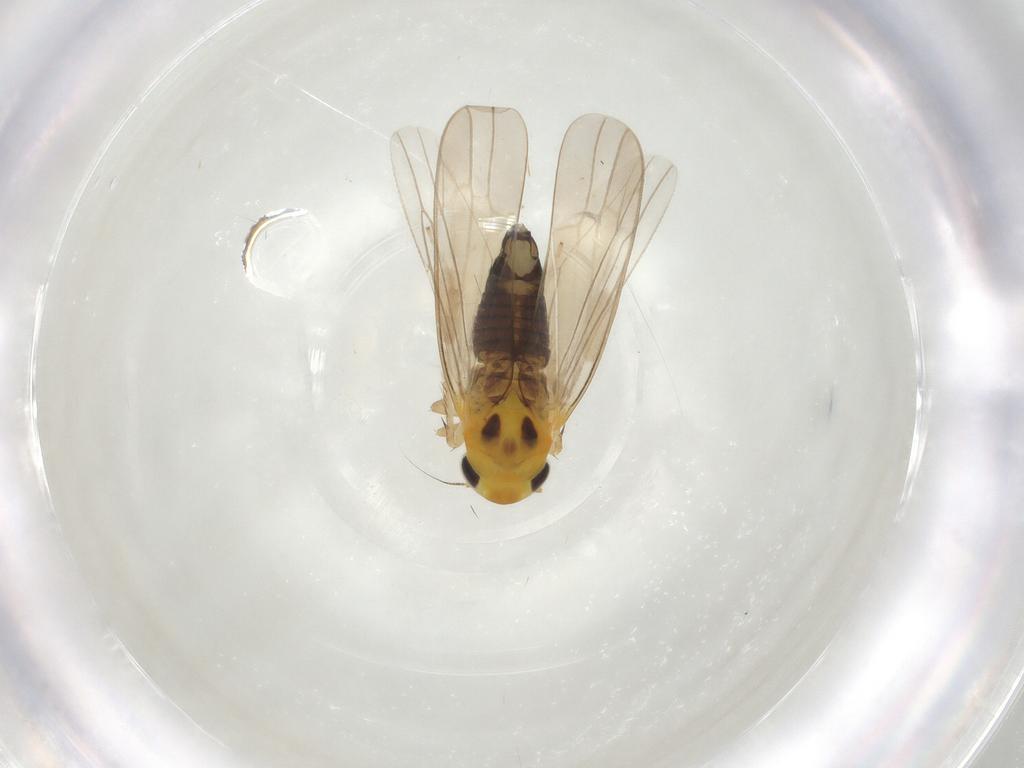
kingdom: Animalia
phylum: Arthropoda
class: Insecta
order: Hemiptera
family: Cicadellidae
